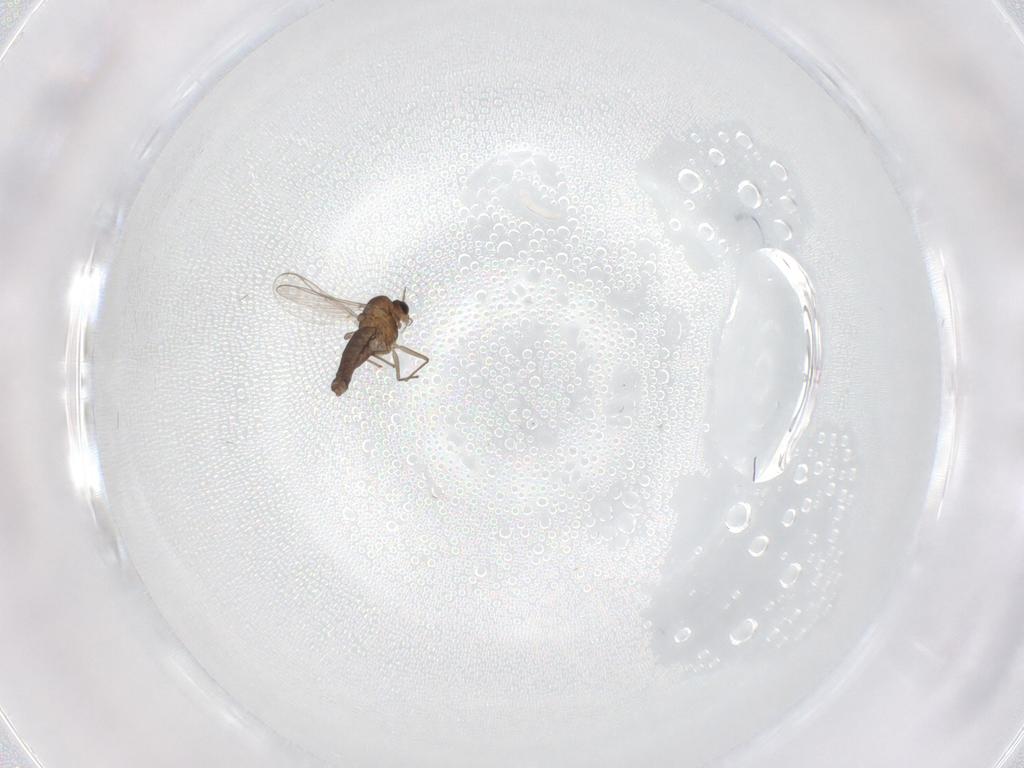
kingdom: Animalia
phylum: Arthropoda
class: Insecta
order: Diptera
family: Chironomidae
